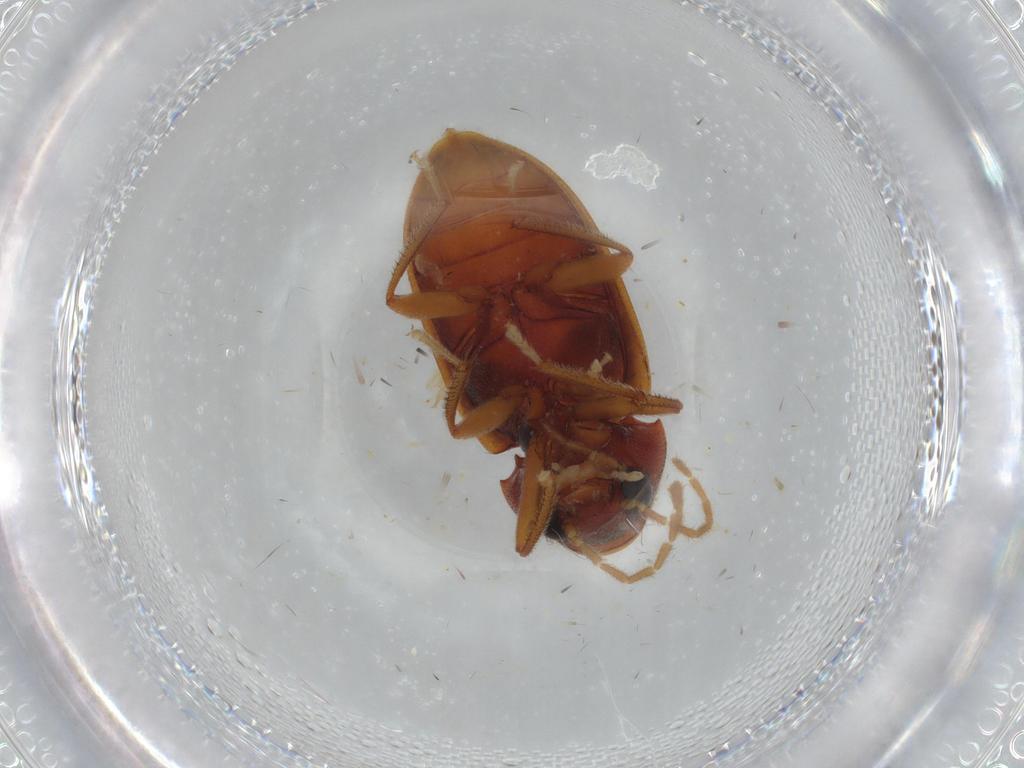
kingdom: Animalia
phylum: Arthropoda
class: Insecta
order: Coleoptera
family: Ptilodactylidae
